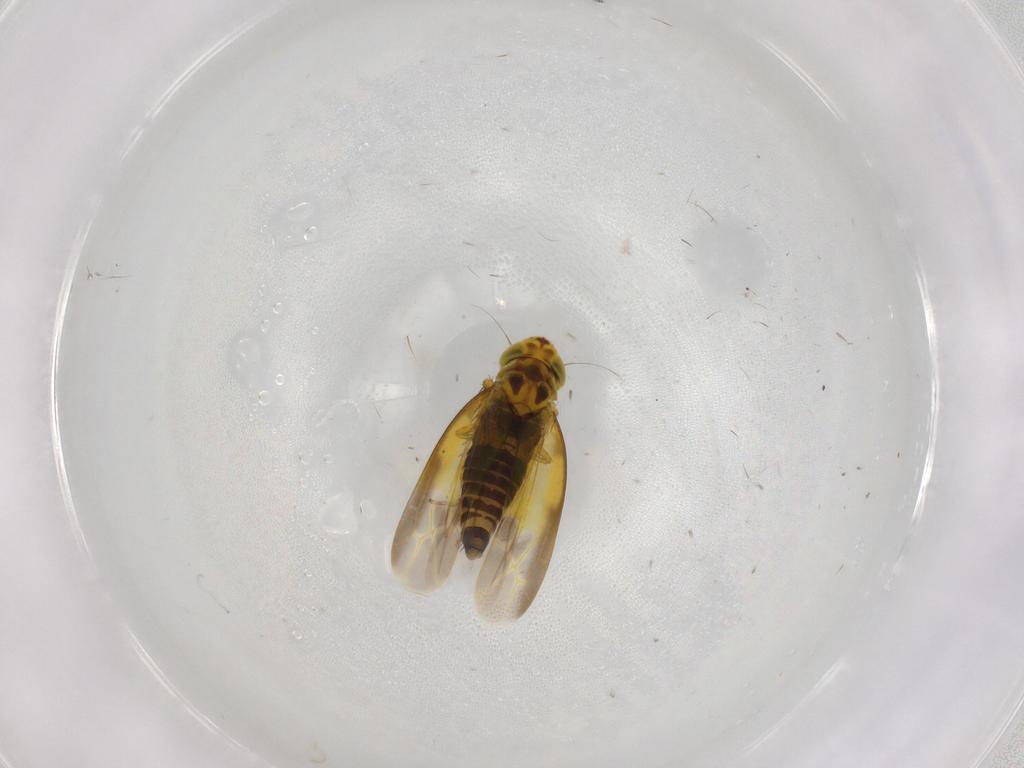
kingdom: Animalia
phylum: Arthropoda
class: Insecta
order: Hemiptera
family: Cicadellidae
